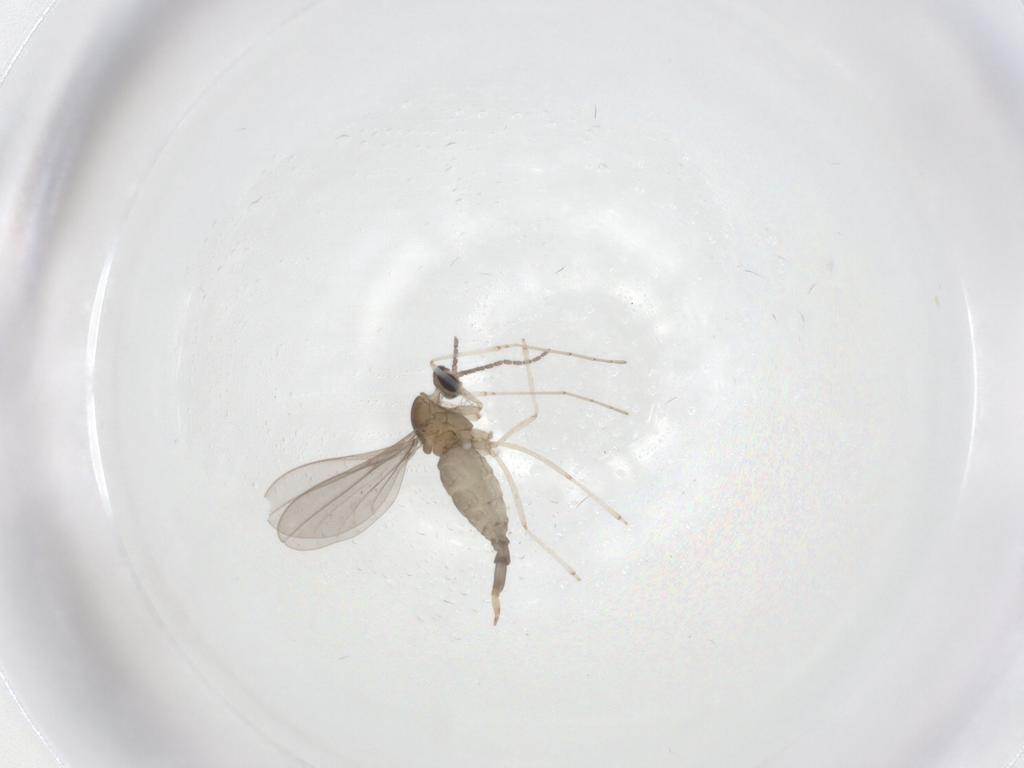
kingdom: Animalia
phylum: Arthropoda
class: Insecta
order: Diptera
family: Cecidomyiidae
